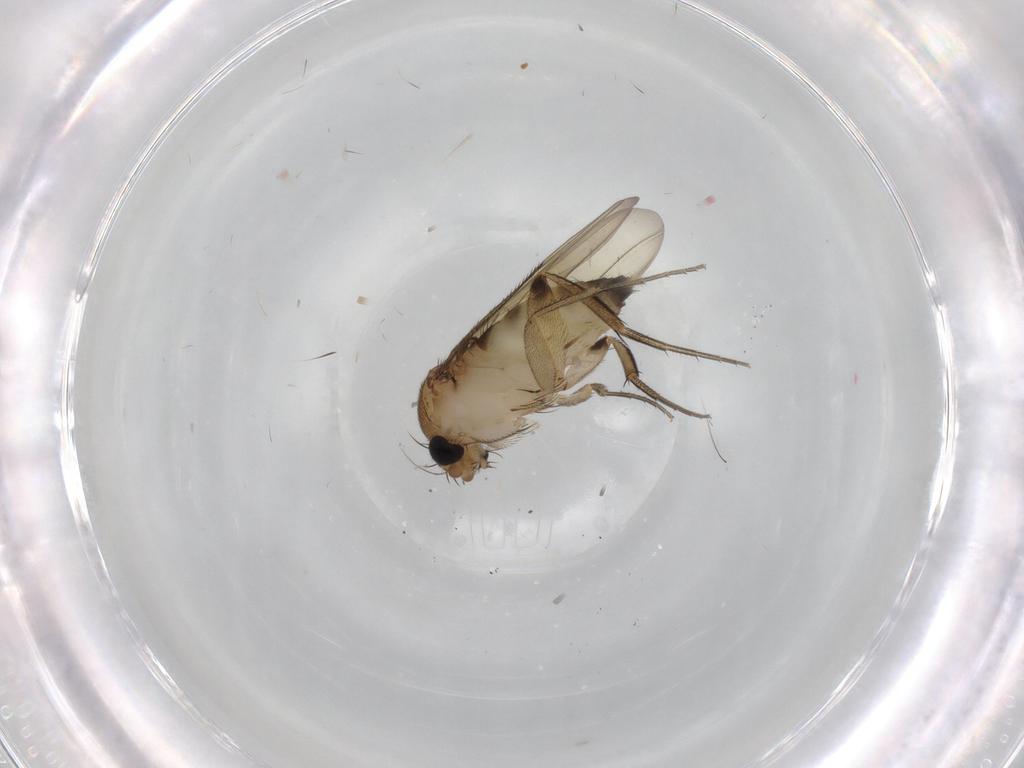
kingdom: Animalia
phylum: Arthropoda
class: Insecta
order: Diptera
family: Phoridae
